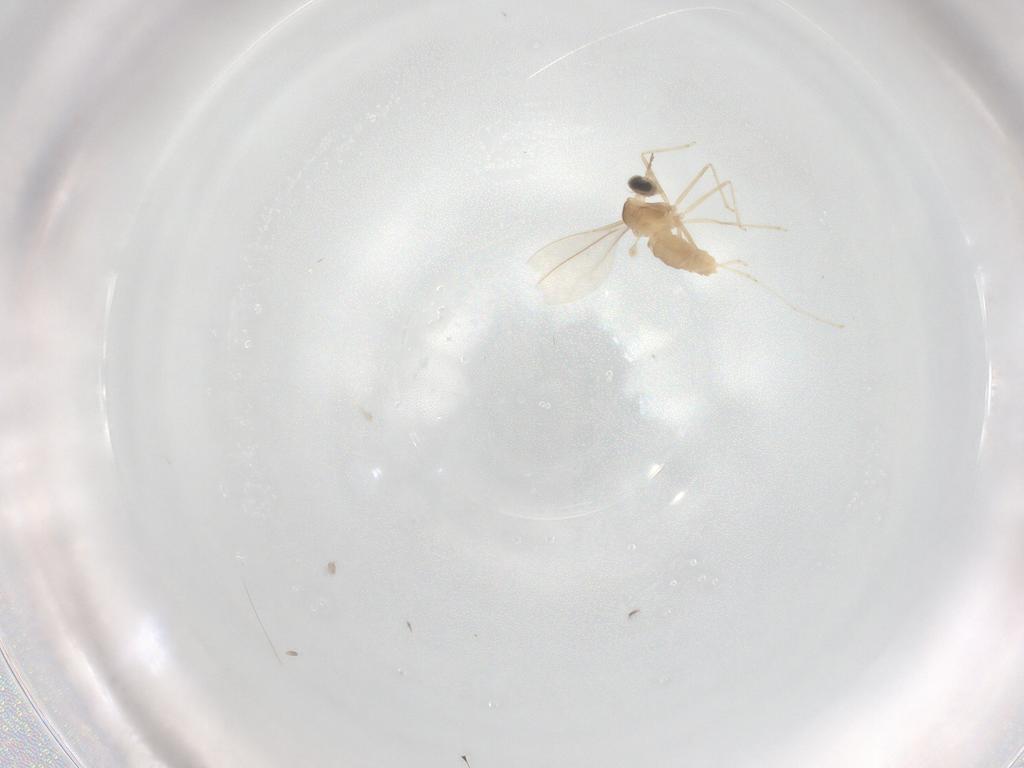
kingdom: Animalia
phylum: Arthropoda
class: Insecta
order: Diptera
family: Cecidomyiidae
